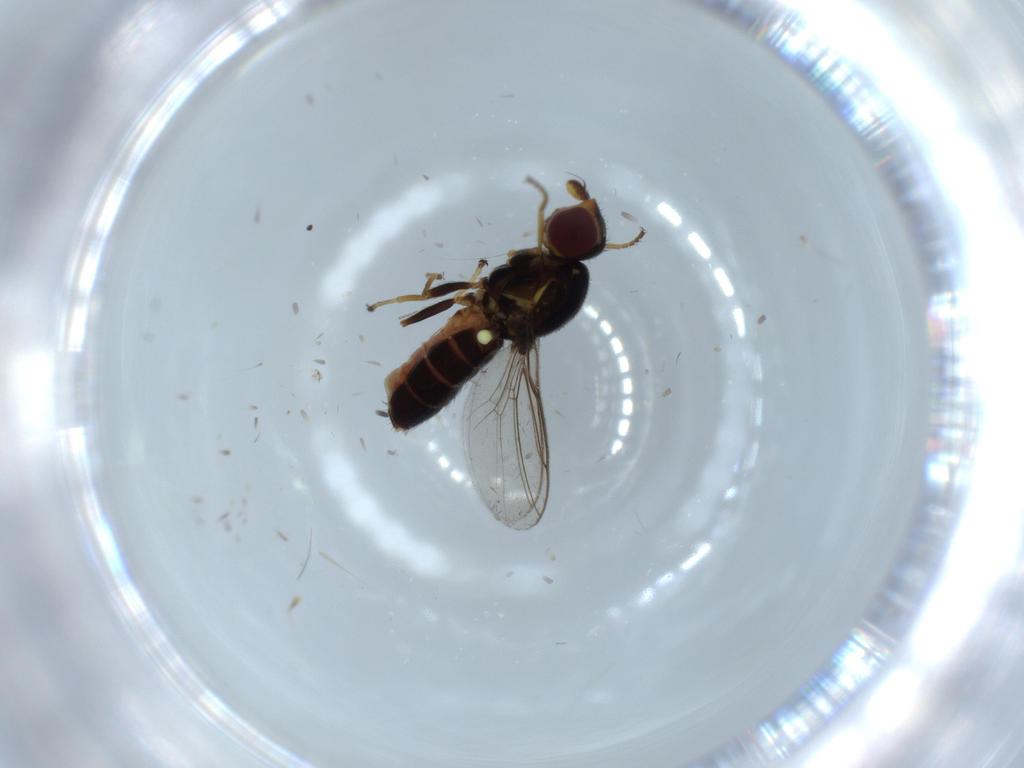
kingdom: Animalia
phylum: Arthropoda
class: Insecta
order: Diptera
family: Chloropidae
